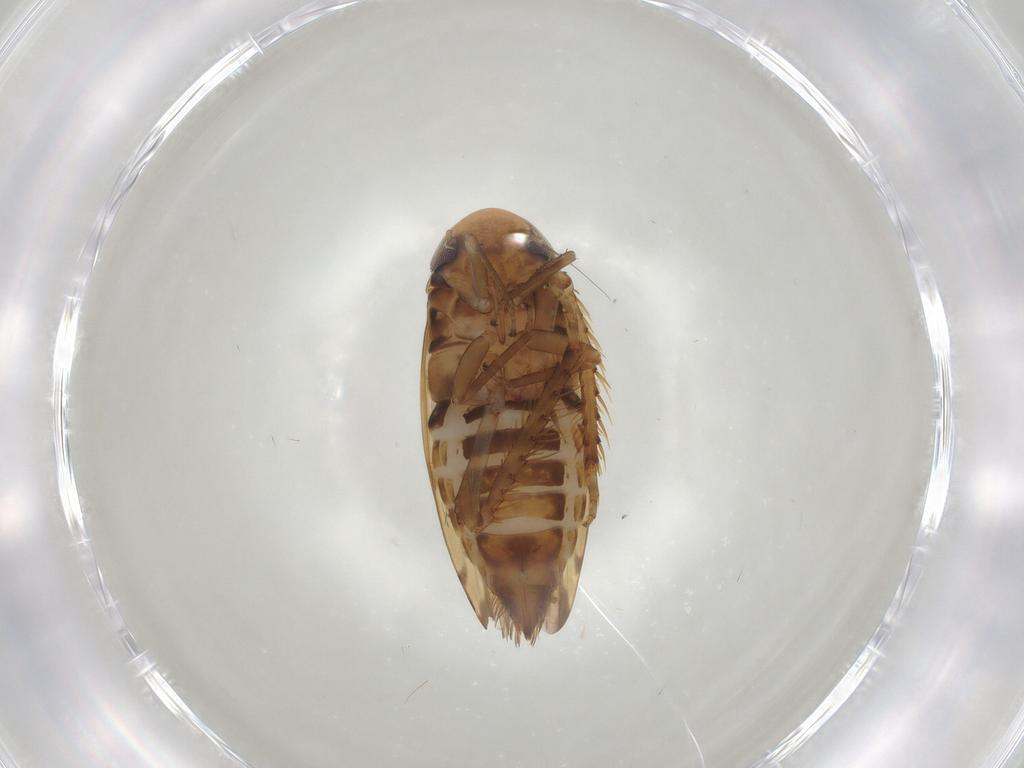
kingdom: Animalia
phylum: Arthropoda
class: Insecta
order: Hemiptera
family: Cicadellidae
